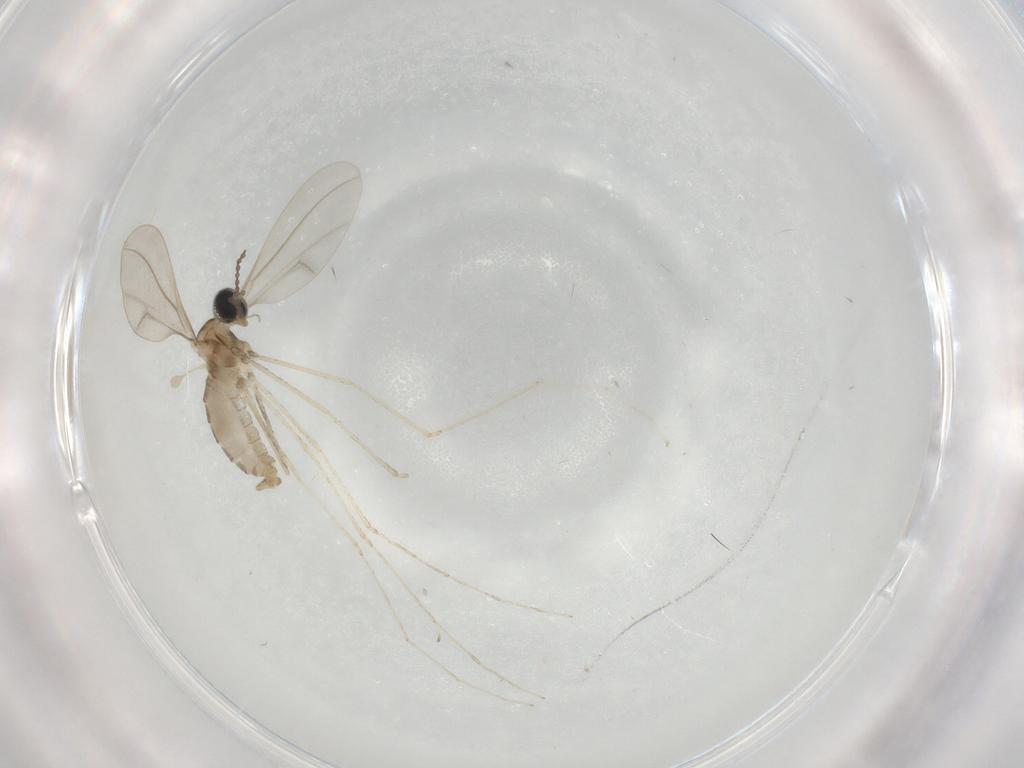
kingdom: Animalia
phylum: Arthropoda
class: Insecta
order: Diptera
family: Cecidomyiidae
